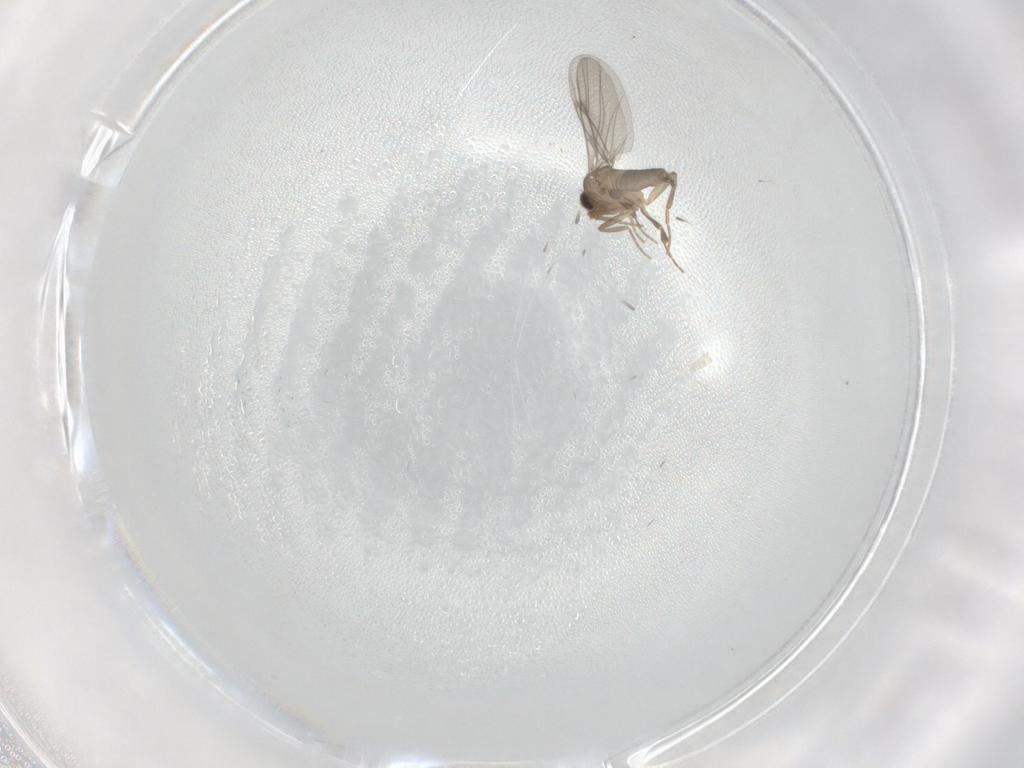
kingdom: Animalia
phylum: Arthropoda
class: Insecta
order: Diptera
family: Sphaeroceridae
